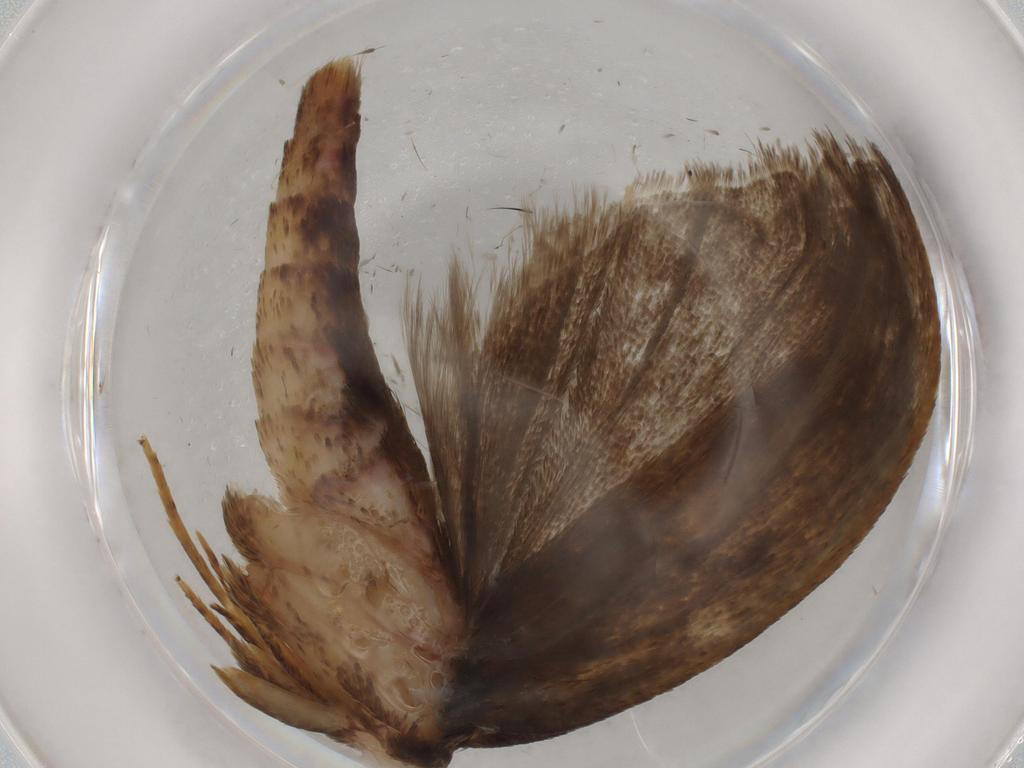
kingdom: Animalia
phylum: Arthropoda
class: Insecta
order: Lepidoptera
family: Autostichidae
